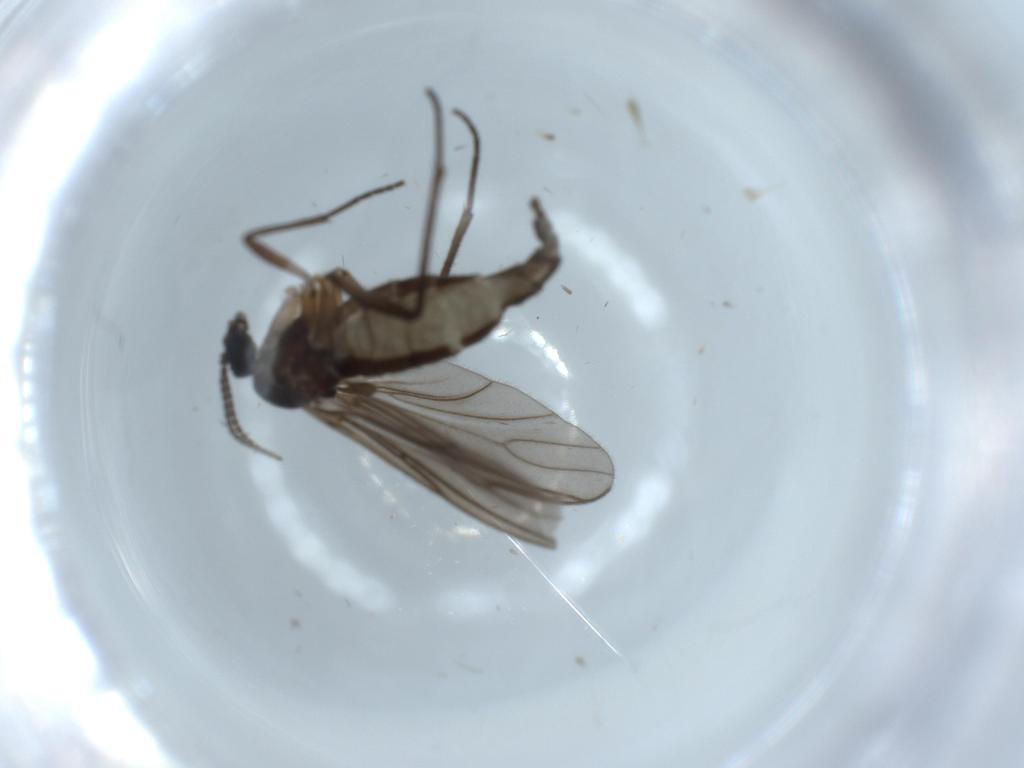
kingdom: Animalia
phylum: Arthropoda
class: Insecta
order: Diptera
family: Sciaridae
